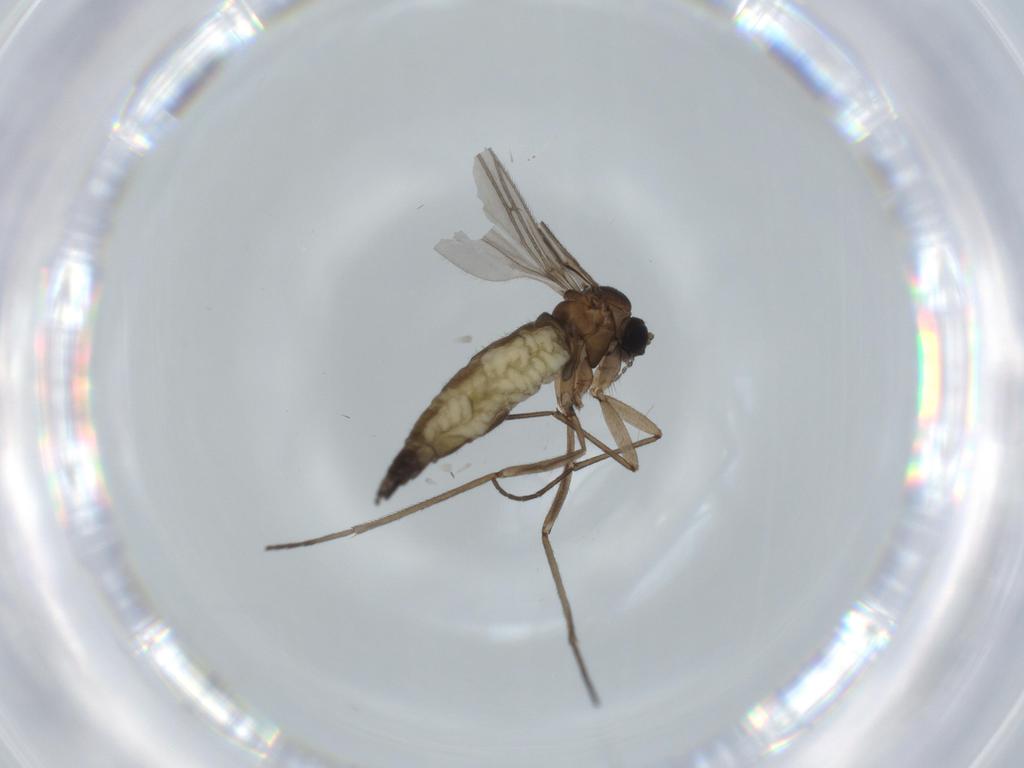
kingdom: Animalia
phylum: Arthropoda
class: Insecta
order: Diptera
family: Sciaridae
